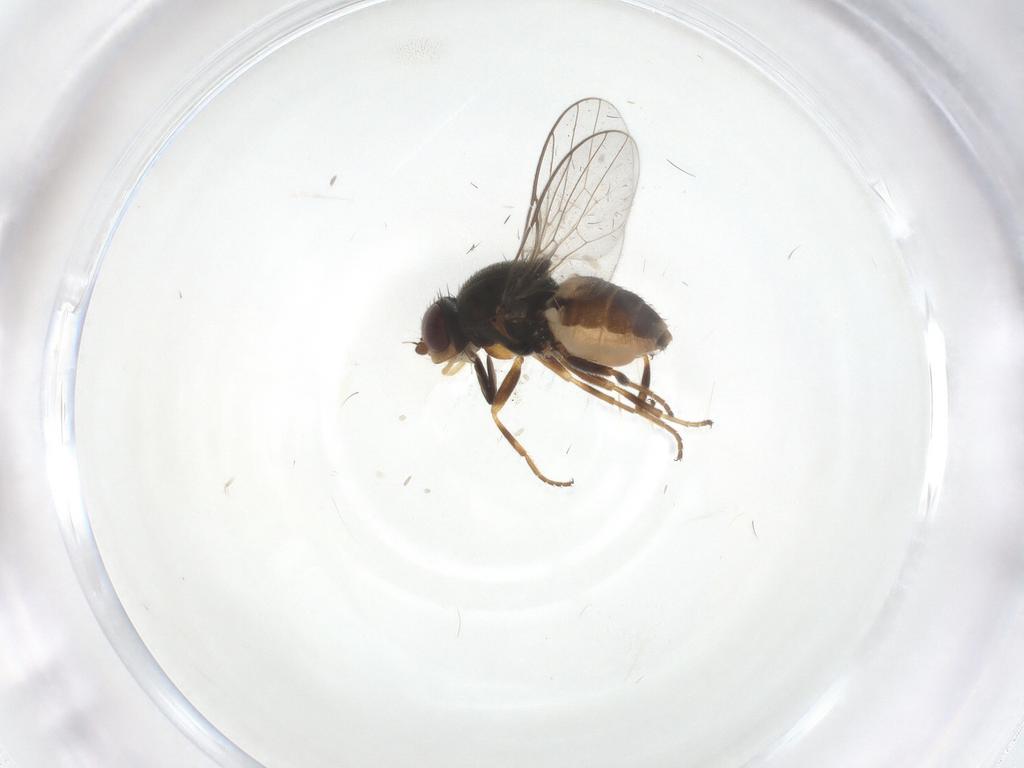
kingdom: Animalia
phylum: Arthropoda
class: Insecta
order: Diptera
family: Chloropidae
